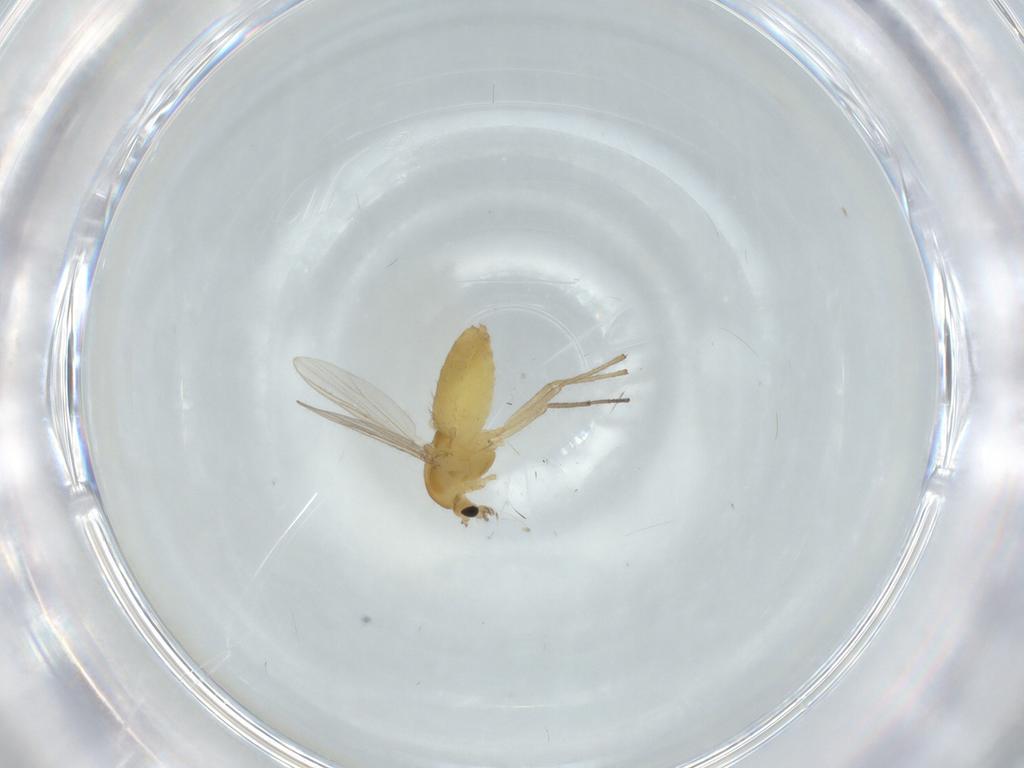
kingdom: Animalia
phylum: Arthropoda
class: Insecta
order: Diptera
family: Chironomidae
